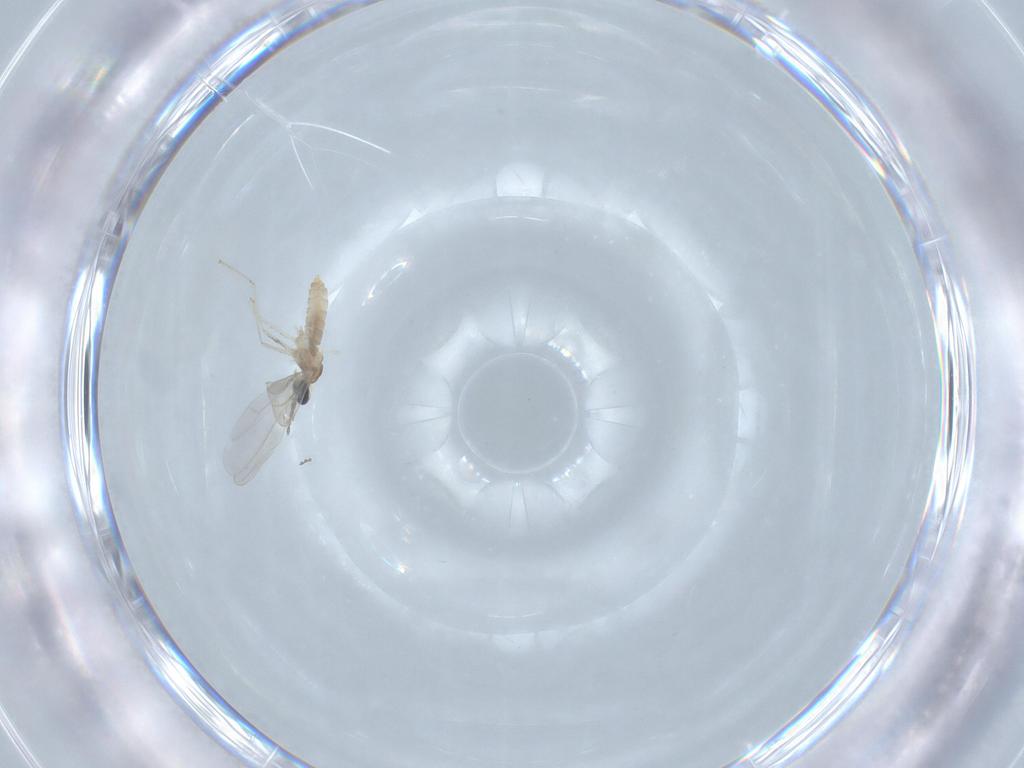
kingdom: Animalia
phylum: Arthropoda
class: Insecta
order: Diptera
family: Cecidomyiidae
